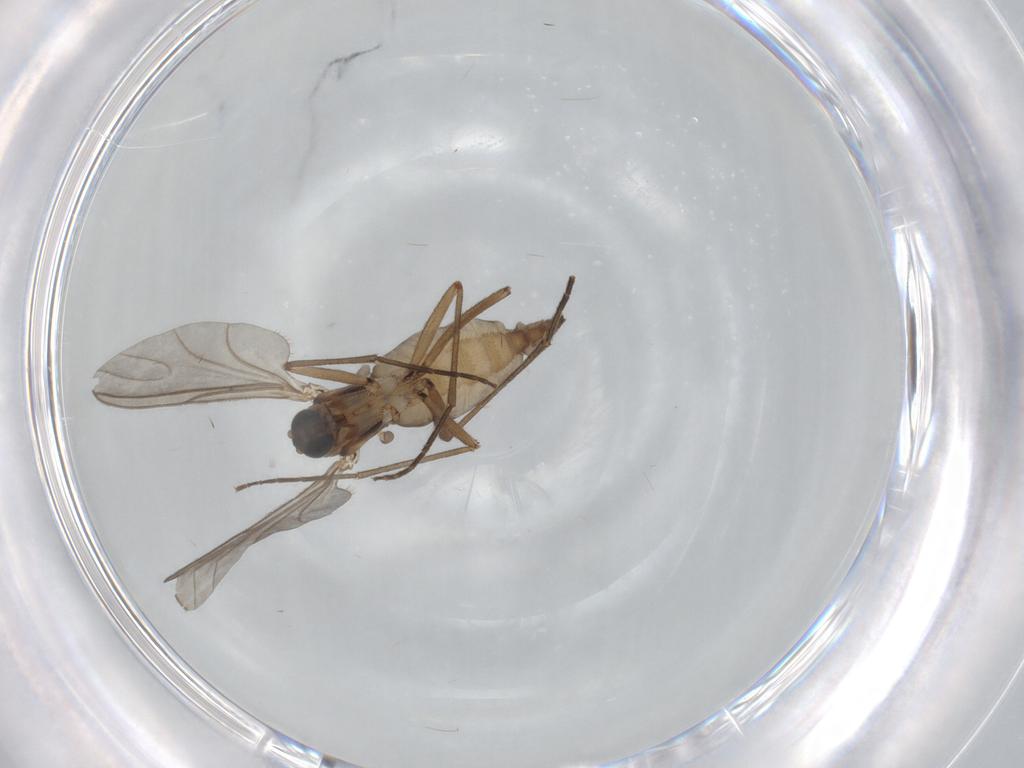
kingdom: Animalia
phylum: Arthropoda
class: Insecta
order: Diptera
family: Sciaridae
